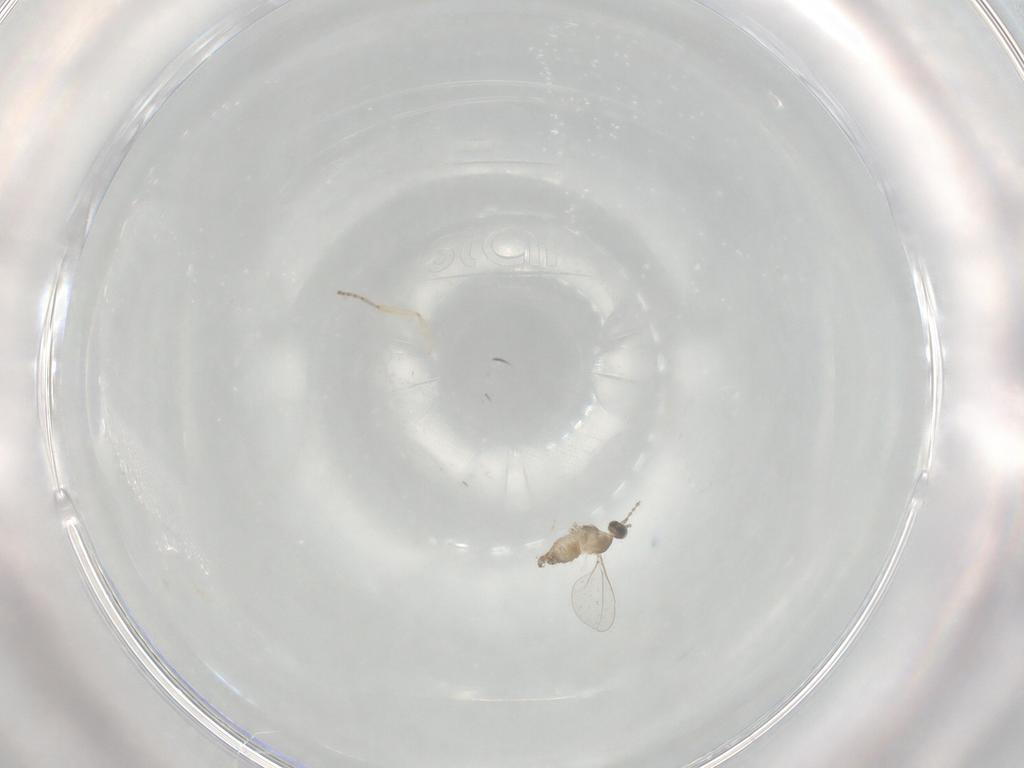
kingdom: Animalia
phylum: Arthropoda
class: Insecta
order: Diptera
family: Cecidomyiidae
